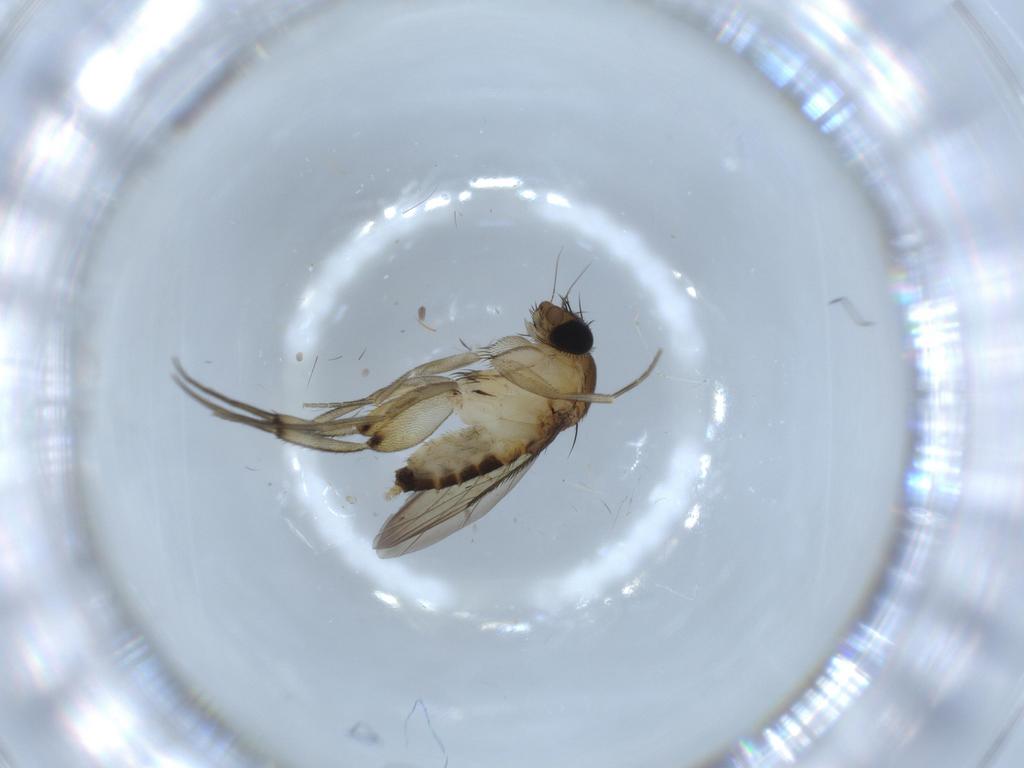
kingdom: Animalia
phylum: Arthropoda
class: Insecta
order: Diptera
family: Phoridae
